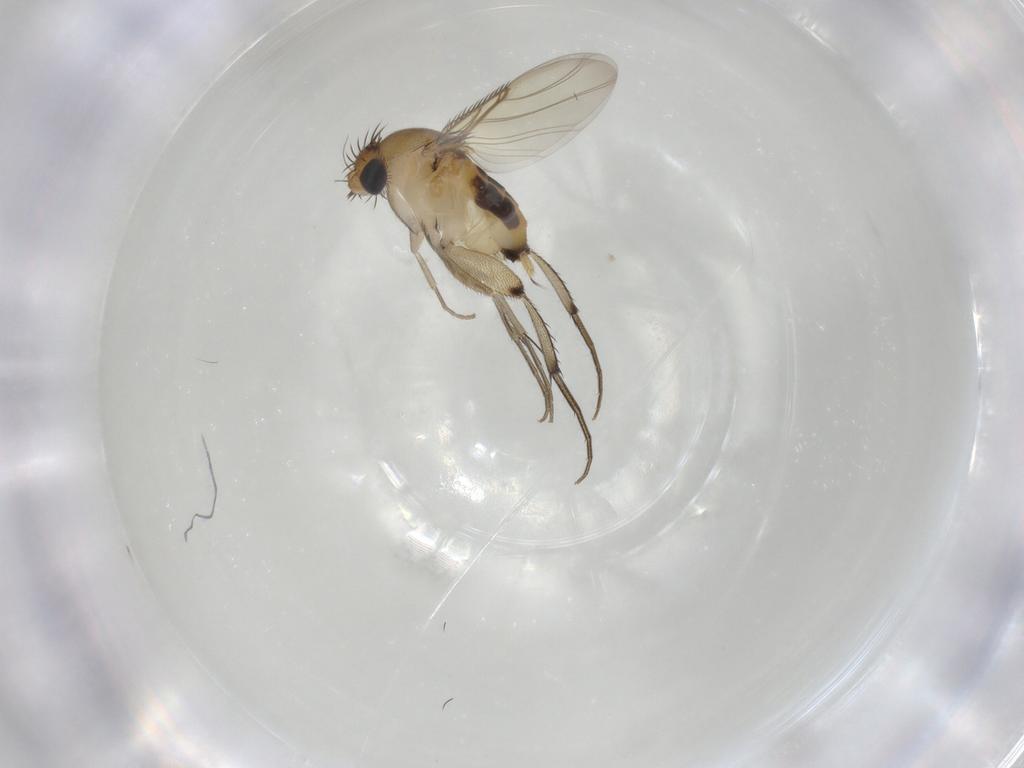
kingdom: Animalia
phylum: Arthropoda
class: Insecta
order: Diptera
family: Phoridae
